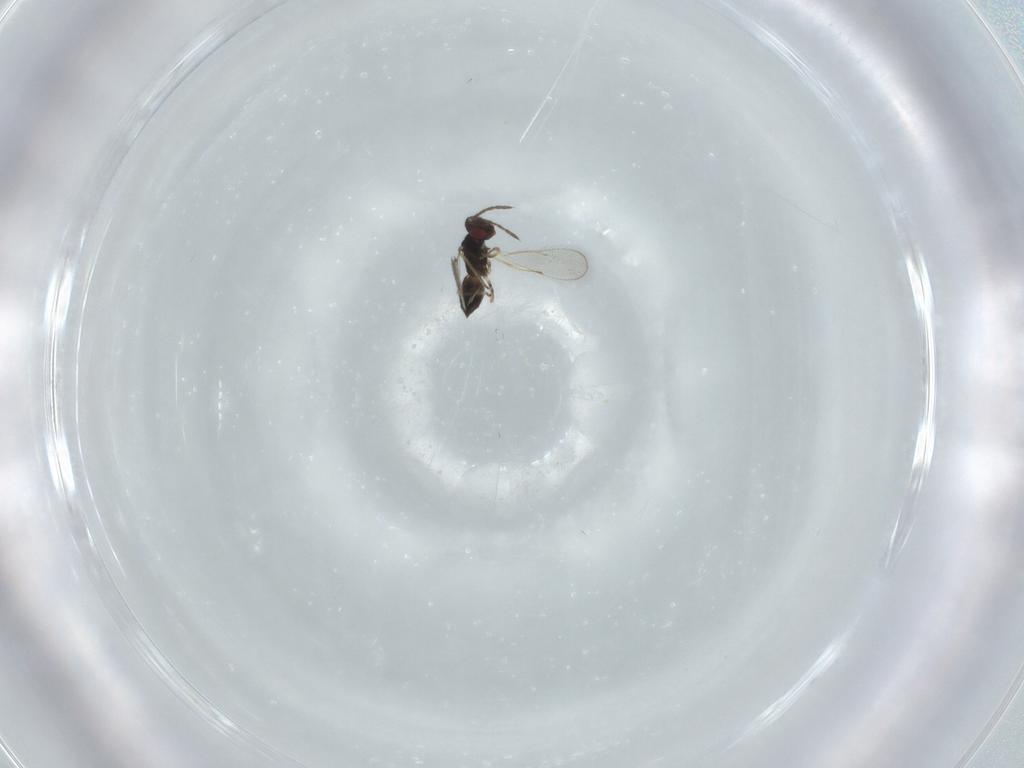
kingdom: Animalia
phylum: Arthropoda
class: Insecta
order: Hymenoptera
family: Eulophidae
